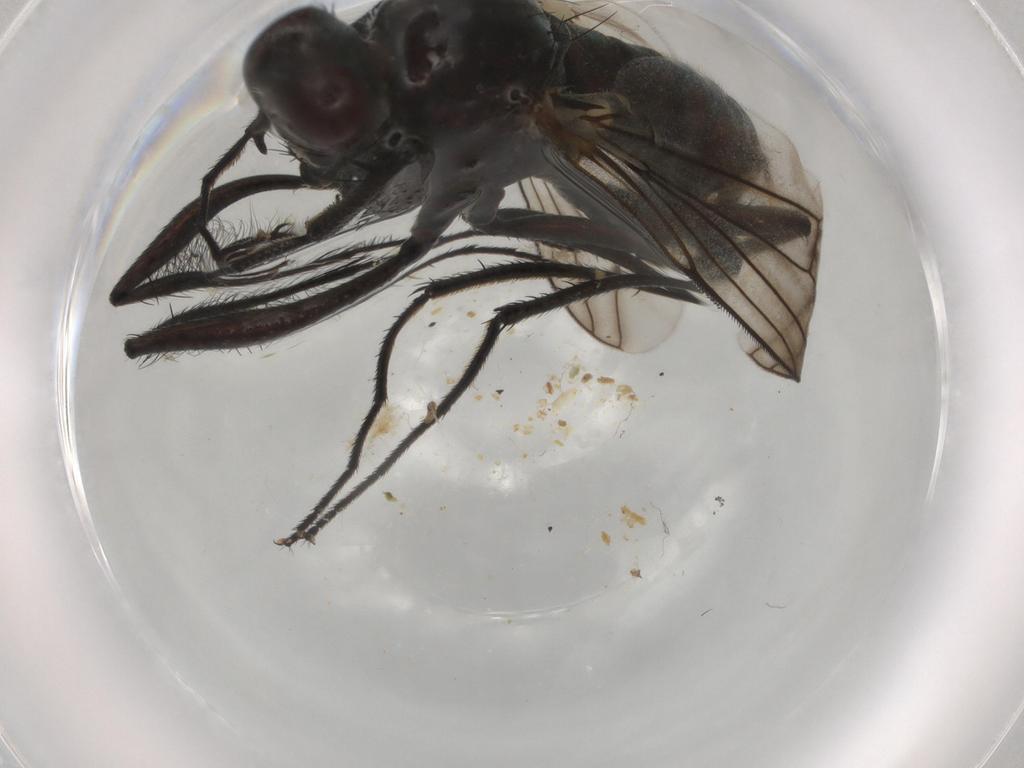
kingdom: Animalia
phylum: Arthropoda
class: Insecta
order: Diptera
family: Dolichopodidae
